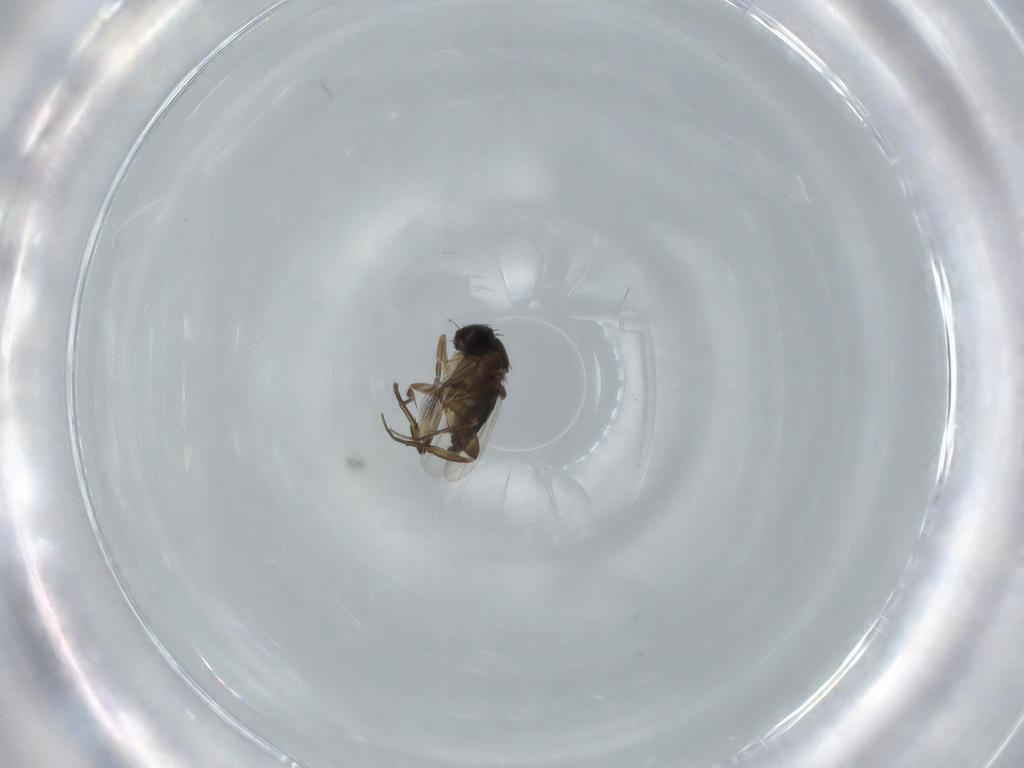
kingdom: Animalia
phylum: Arthropoda
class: Insecta
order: Diptera
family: Phoridae
